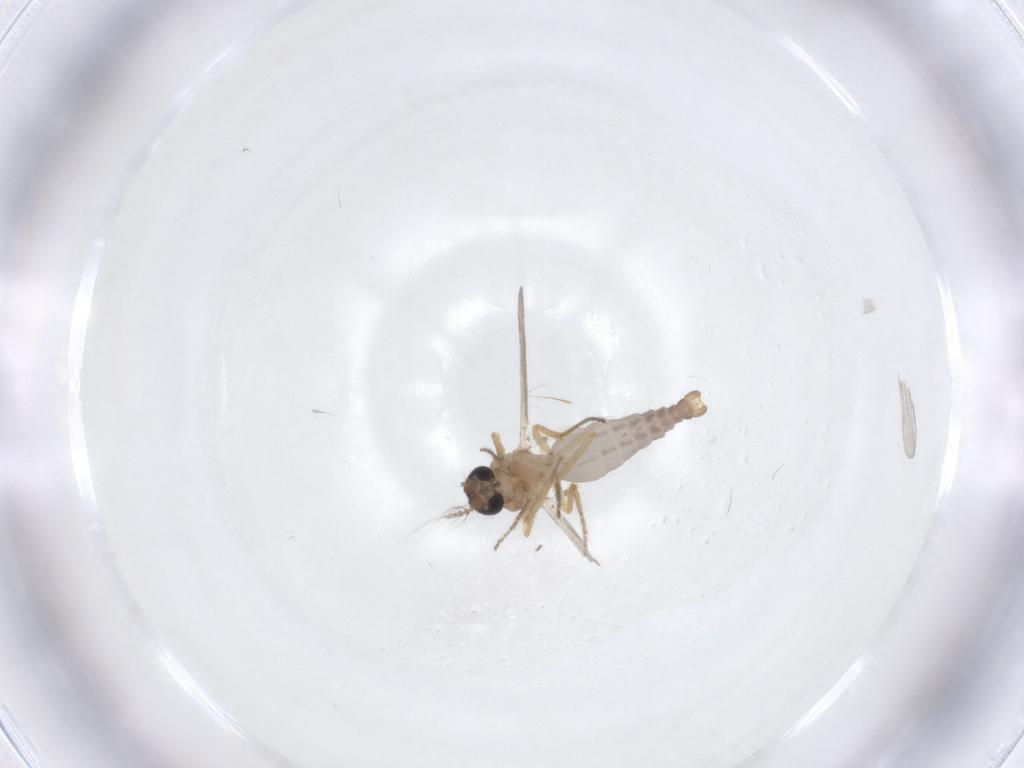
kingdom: Animalia
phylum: Arthropoda
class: Insecta
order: Diptera
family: Ceratopogonidae
